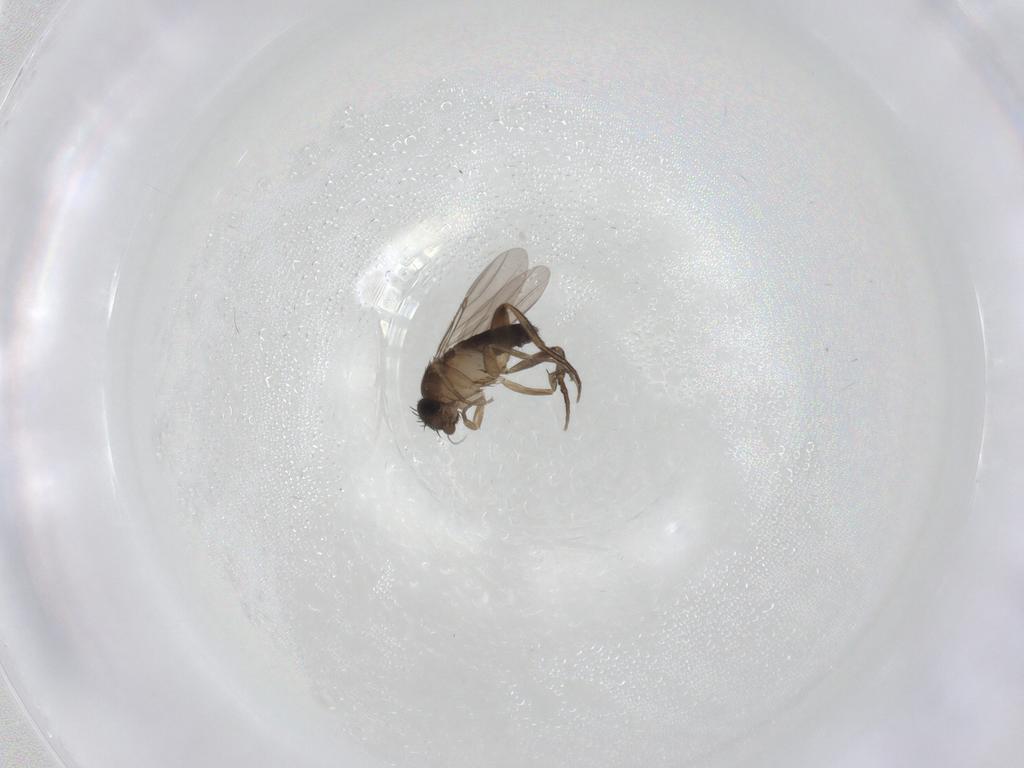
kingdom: Animalia
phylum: Arthropoda
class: Insecta
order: Diptera
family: Phoridae
